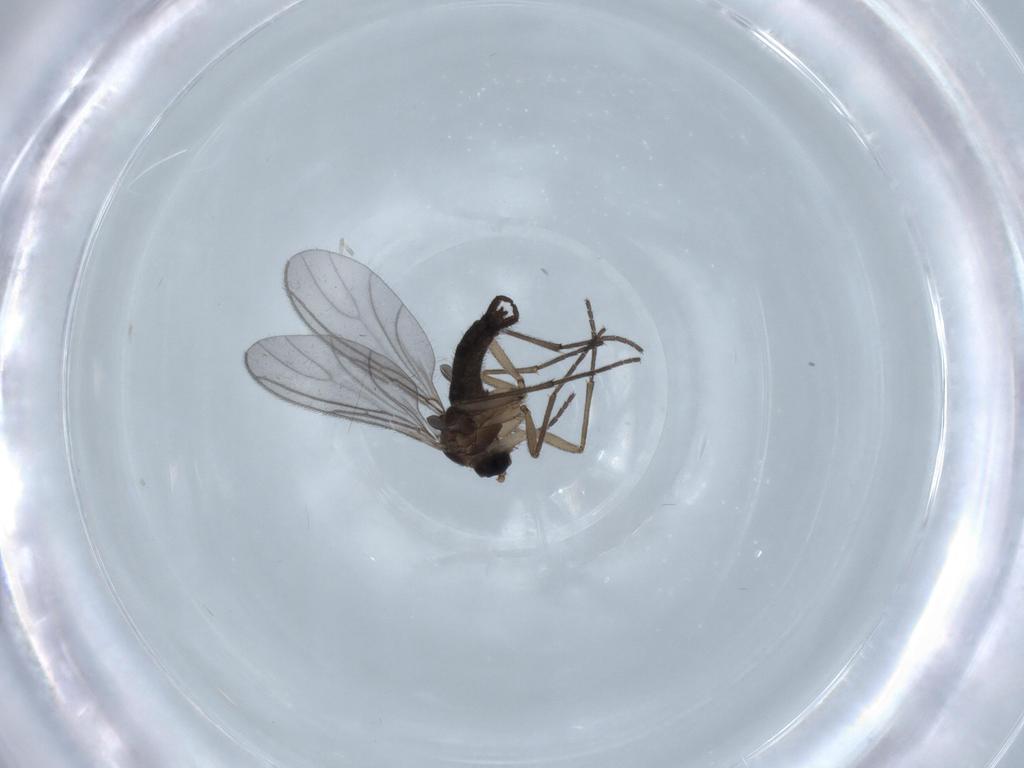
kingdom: Animalia
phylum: Arthropoda
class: Insecta
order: Diptera
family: Sciaridae
